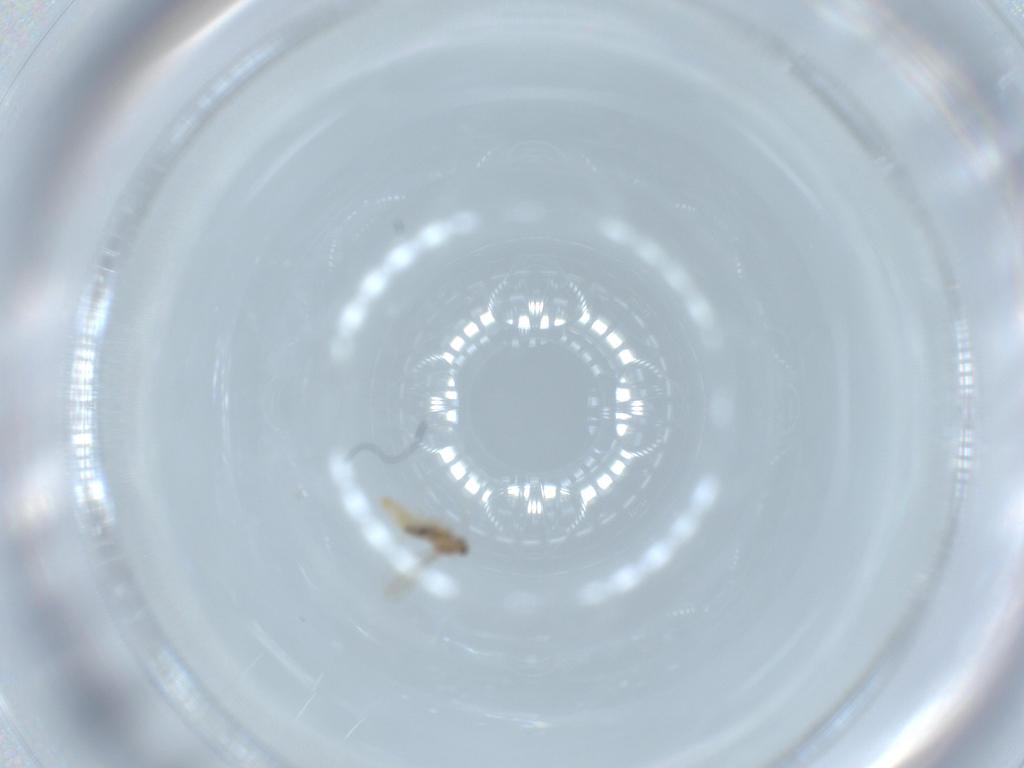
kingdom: Animalia
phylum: Arthropoda
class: Insecta
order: Diptera
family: Cecidomyiidae
